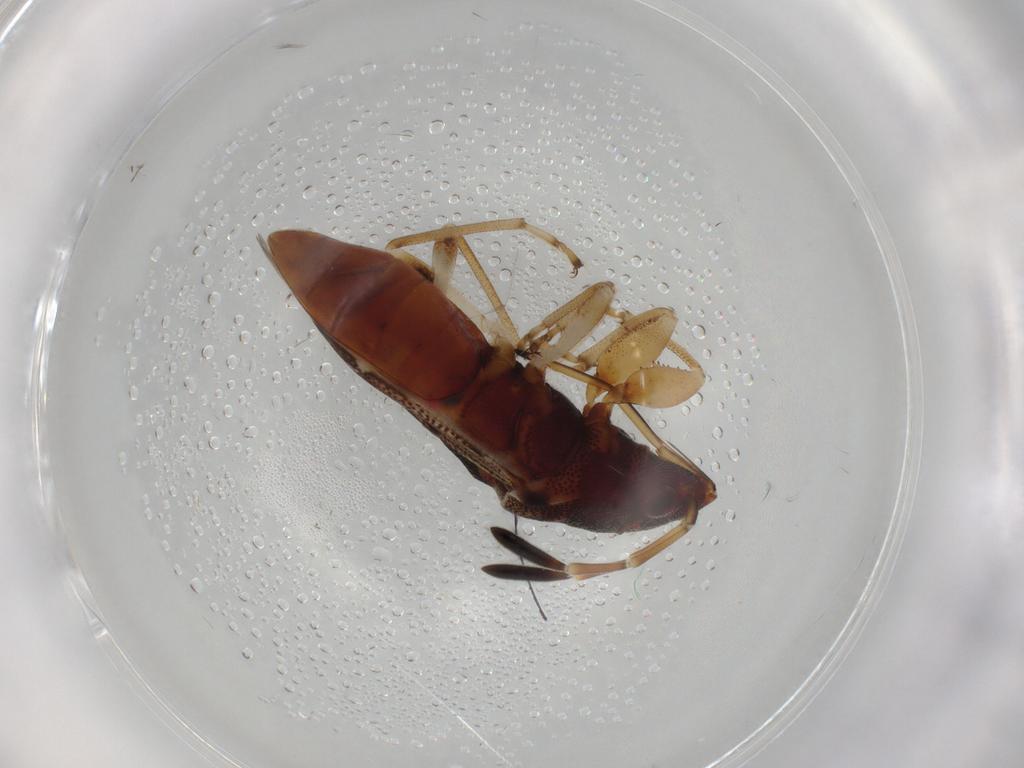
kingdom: Animalia
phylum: Arthropoda
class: Insecta
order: Hemiptera
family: Rhyparochromidae
